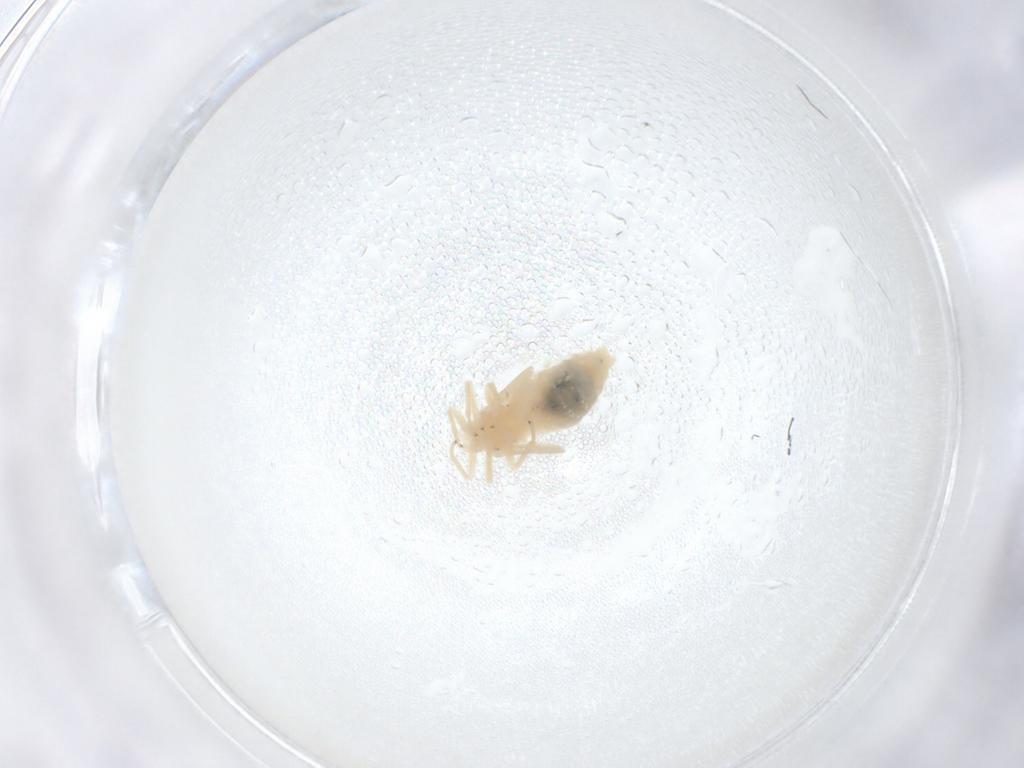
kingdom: Animalia
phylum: Arthropoda
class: Insecta
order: Psocodea
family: Caeciliusidae
